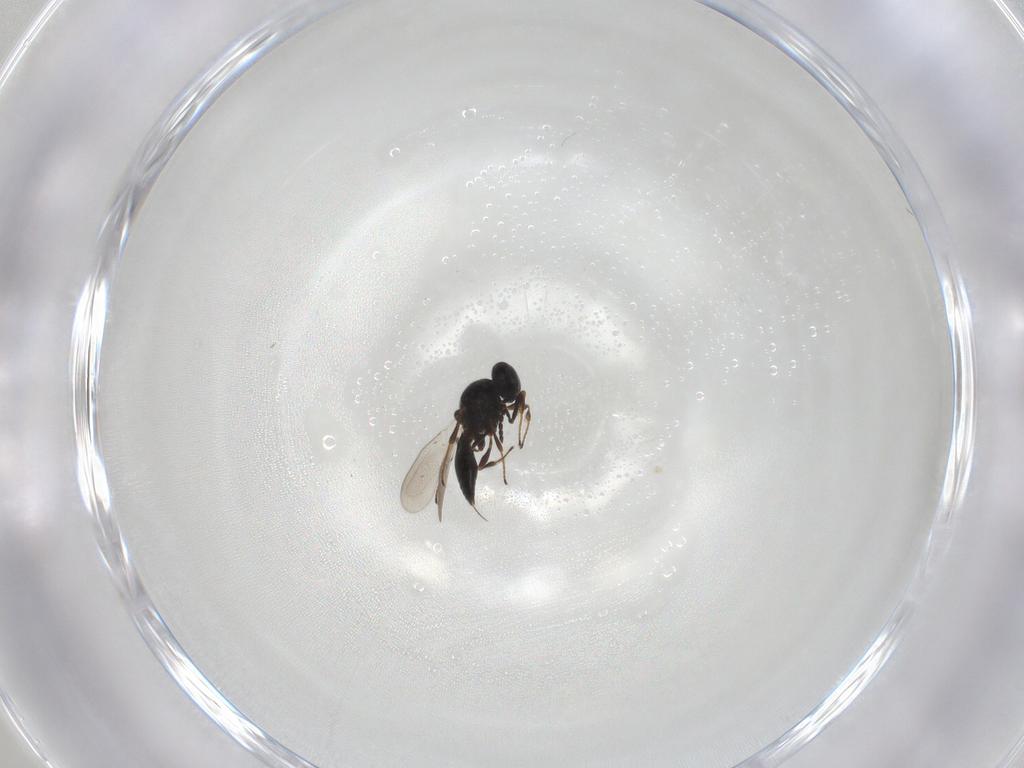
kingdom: Animalia
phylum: Arthropoda
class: Insecta
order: Hymenoptera
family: Platygastridae
